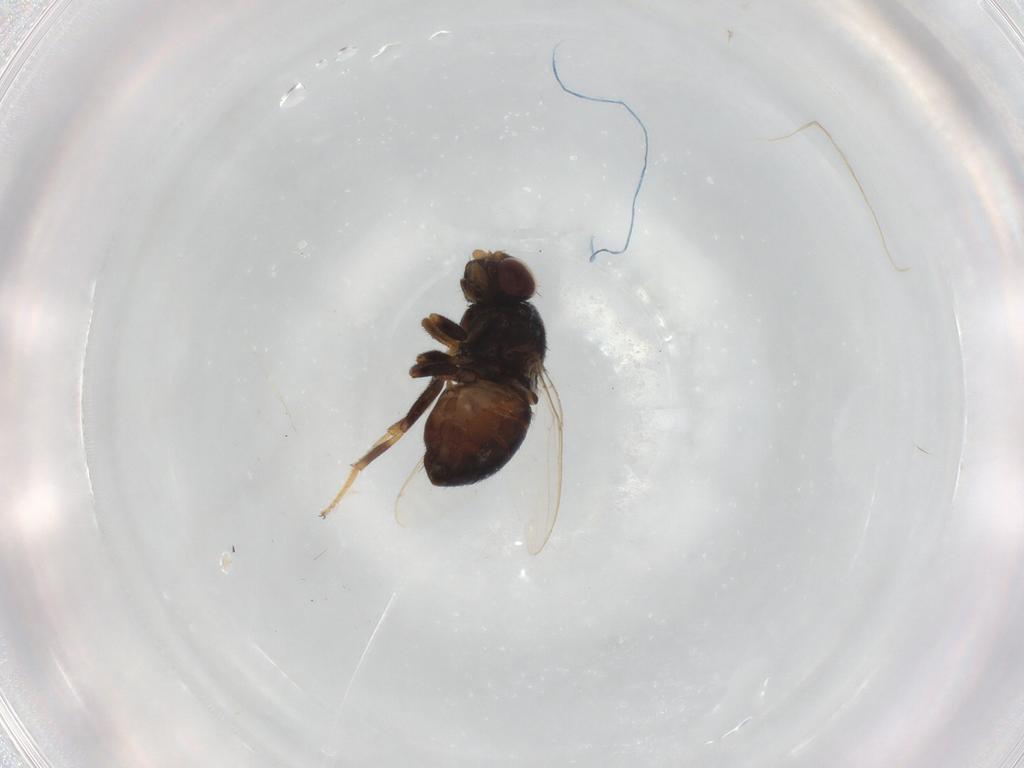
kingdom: Animalia
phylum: Arthropoda
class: Insecta
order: Diptera
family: Chloropidae
